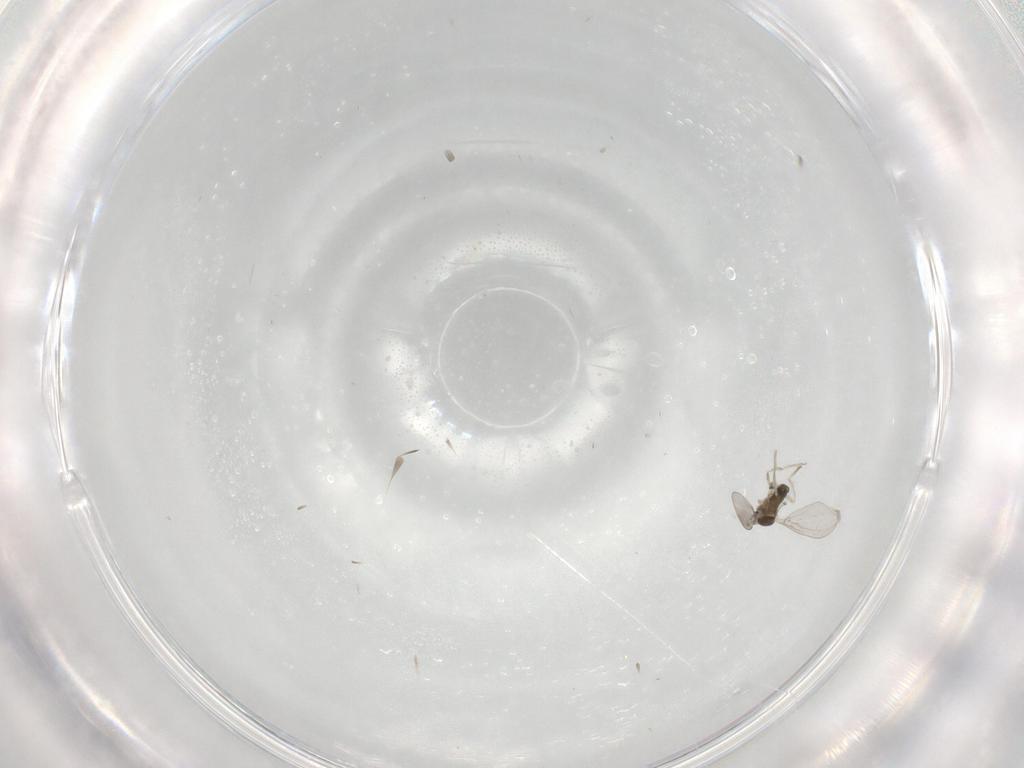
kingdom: Animalia
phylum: Arthropoda
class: Insecta
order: Diptera
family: Cecidomyiidae
